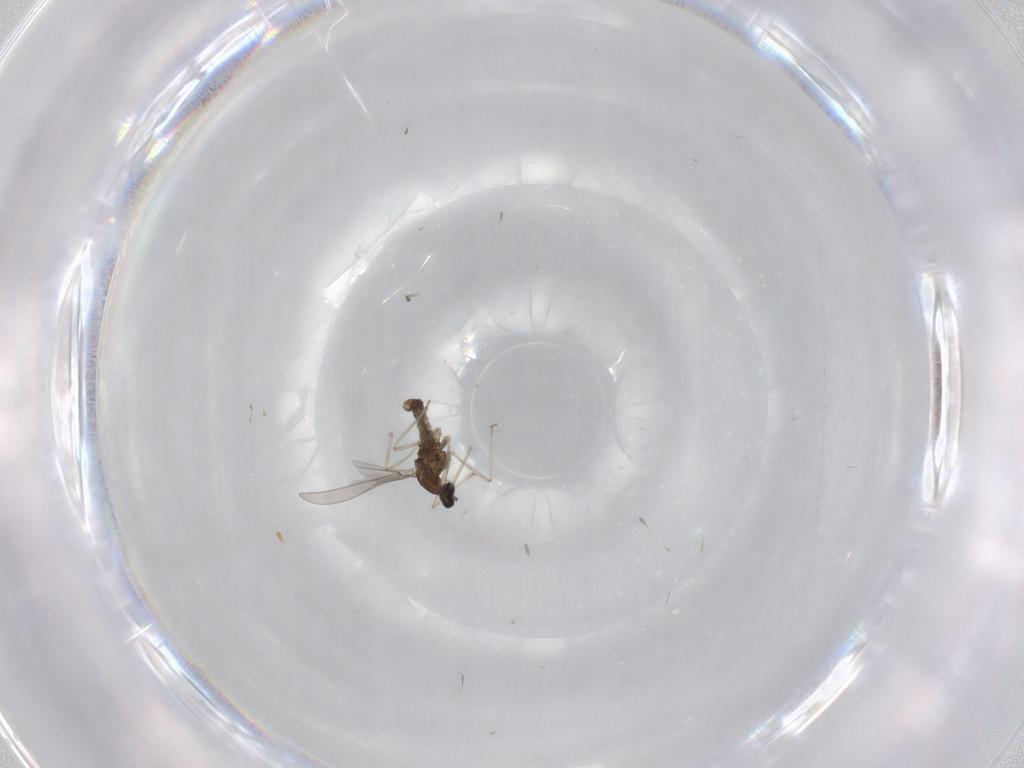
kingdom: Animalia
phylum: Arthropoda
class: Insecta
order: Diptera
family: Cecidomyiidae
